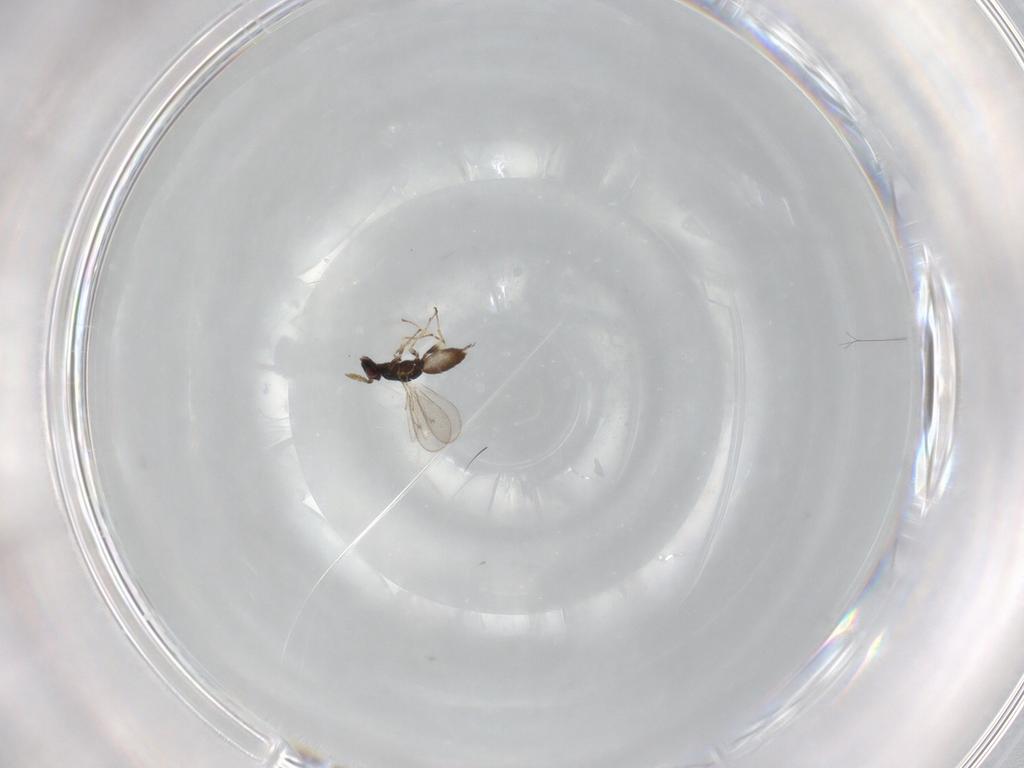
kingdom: Animalia
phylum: Arthropoda
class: Insecta
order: Hymenoptera
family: Eulophidae
